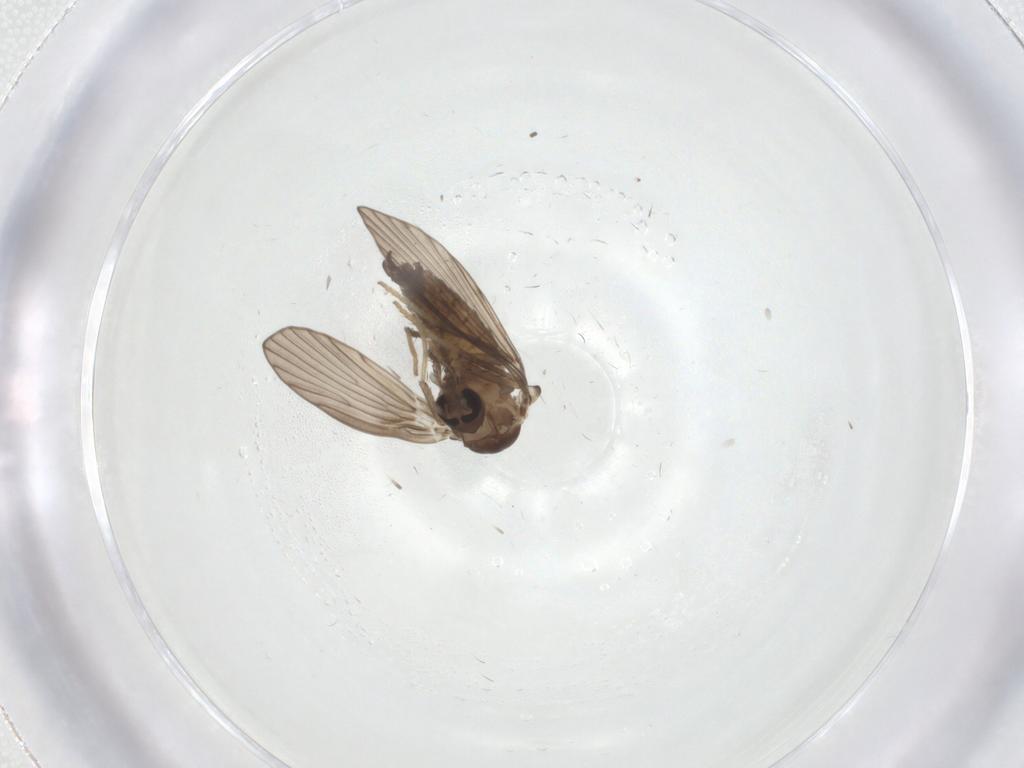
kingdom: Animalia
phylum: Arthropoda
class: Insecta
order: Diptera
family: Psychodidae
